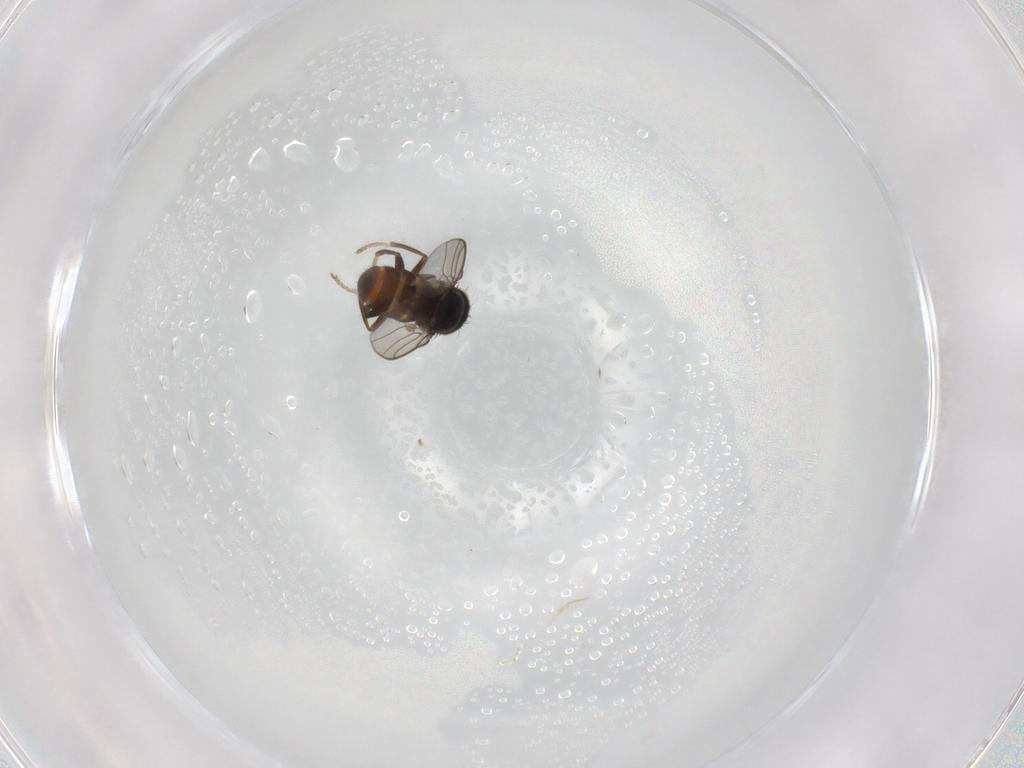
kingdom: Animalia
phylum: Arthropoda
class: Insecta
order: Diptera
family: Chloropidae
